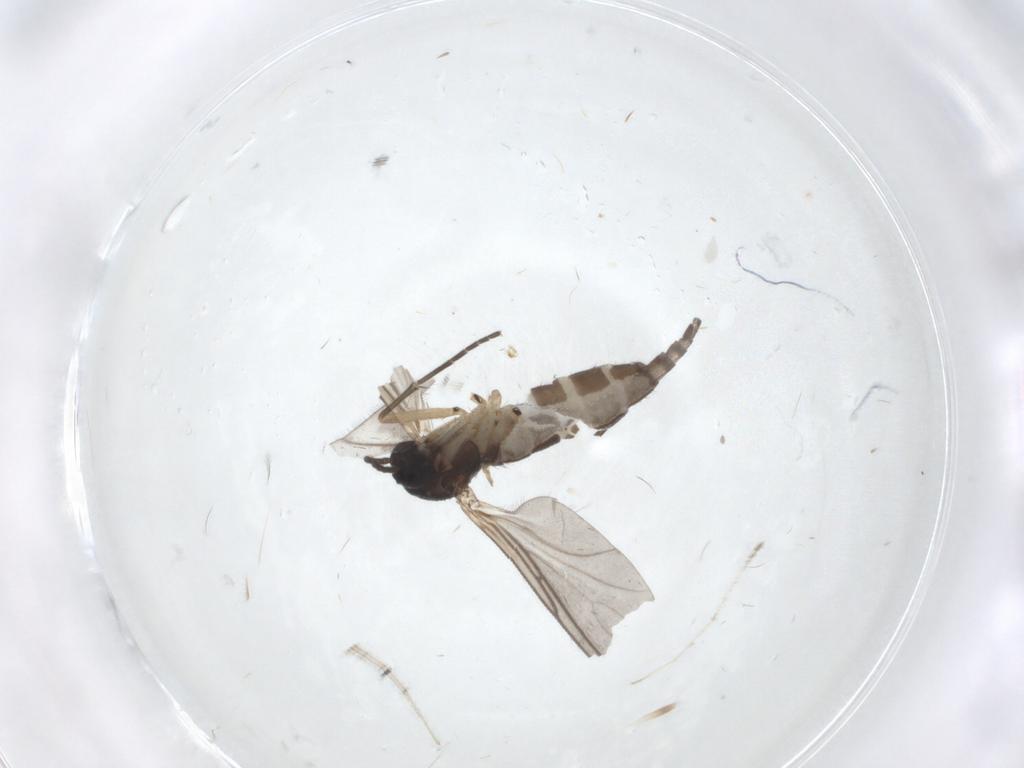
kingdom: Animalia
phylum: Arthropoda
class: Insecta
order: Diptera
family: Sciaridae
